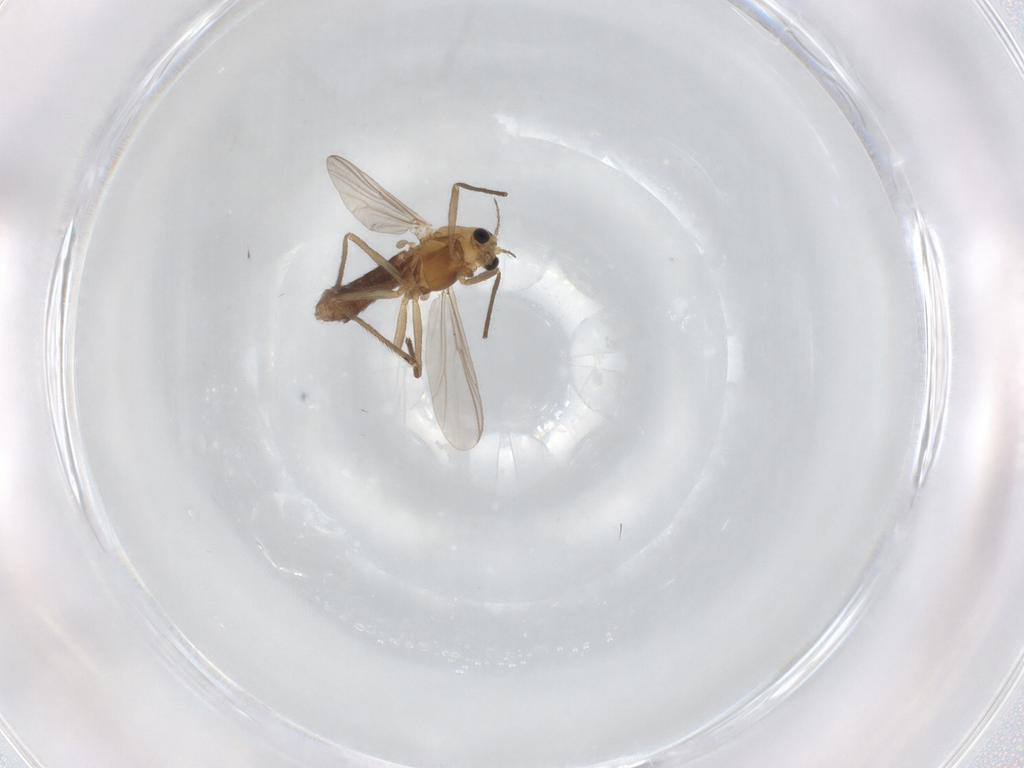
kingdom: Animalia
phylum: Arthropoda
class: Insecta
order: Diptera
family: Chironomidae
